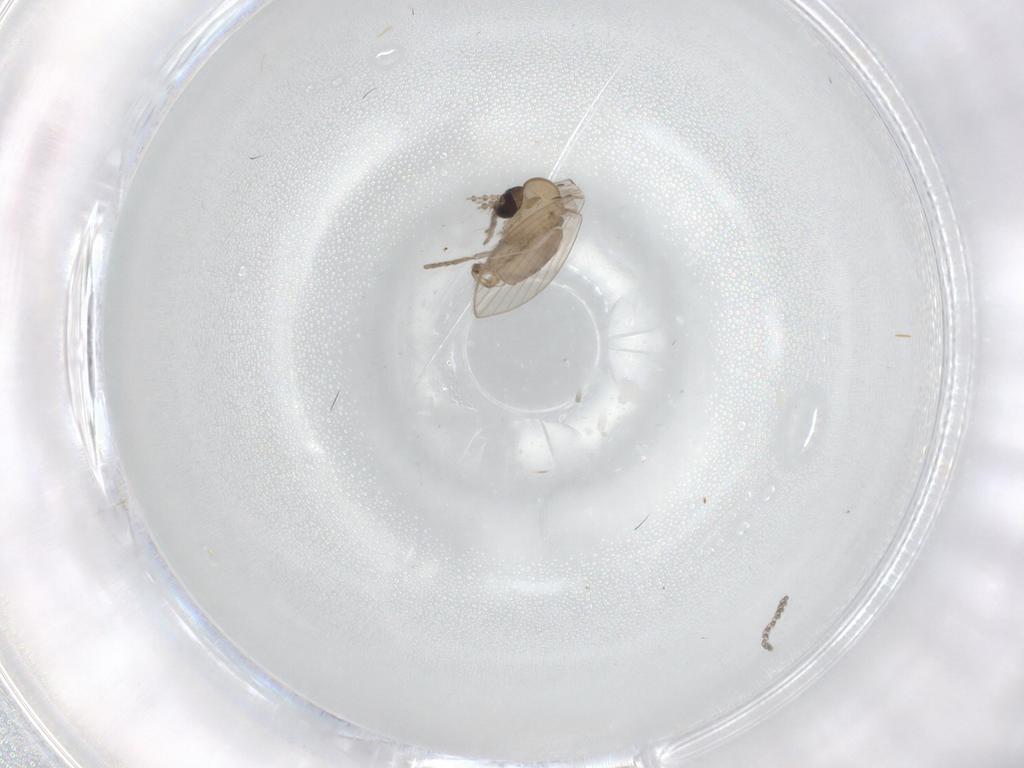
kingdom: Animalia
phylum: Arthropoda
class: Insecta
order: Diptera
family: Psychodidae
